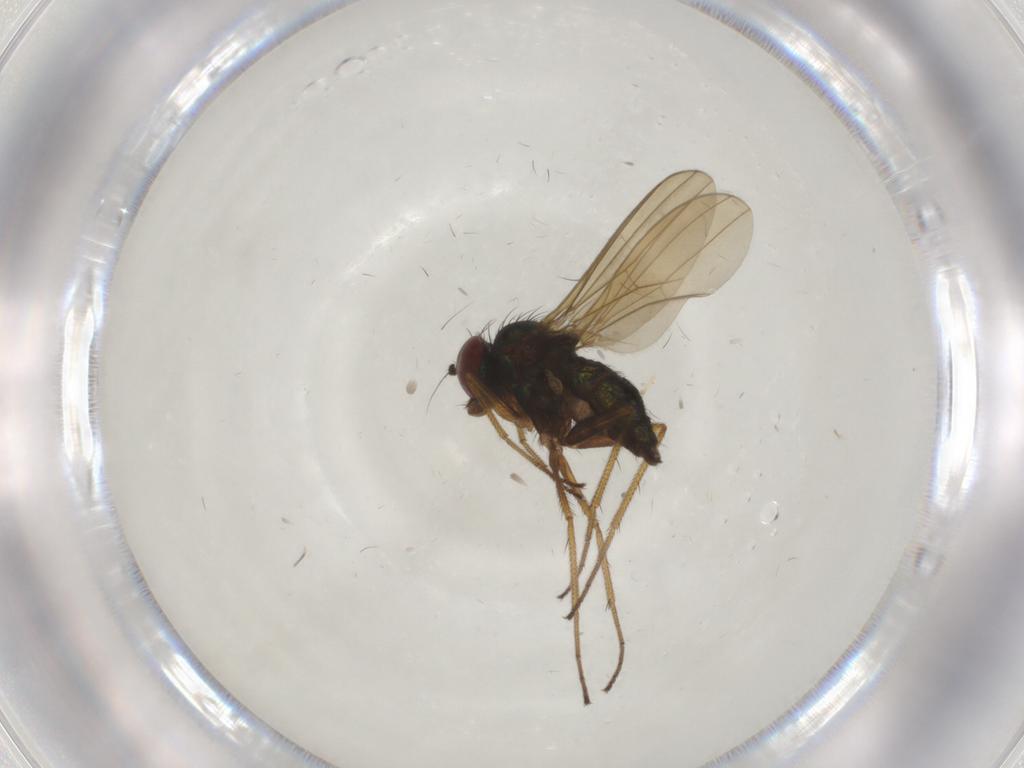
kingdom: Animalia
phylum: Arthropoda
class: Insecta
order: Diptera
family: Dolichopodidae
